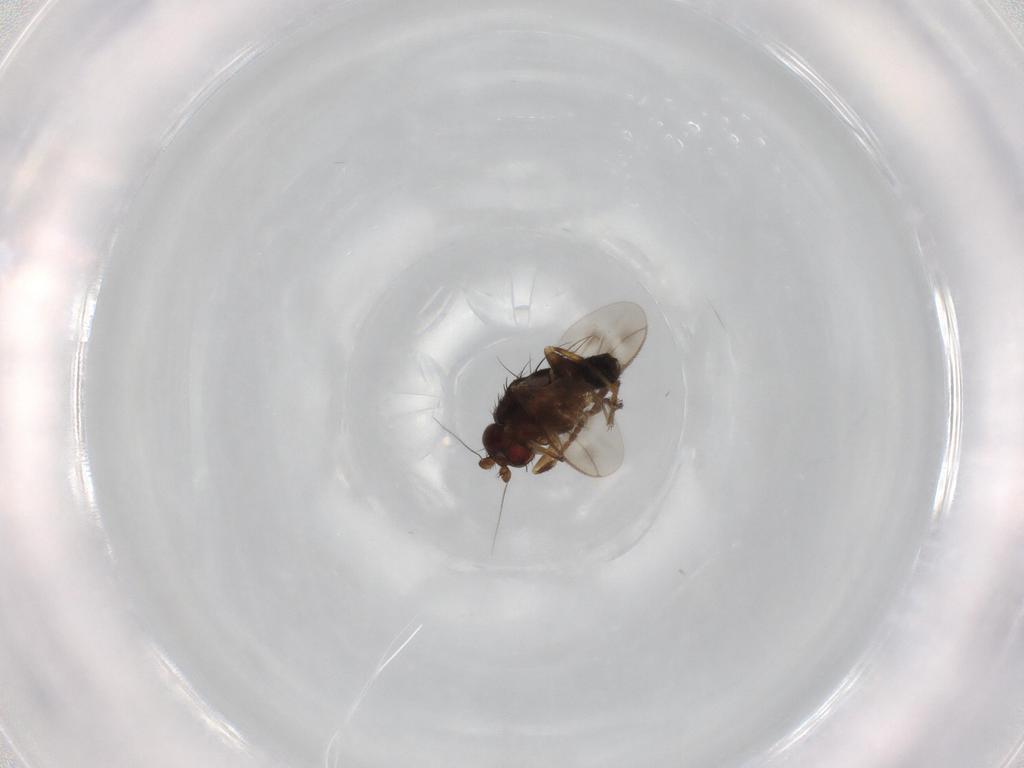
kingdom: Animalia
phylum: Arthropoda
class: Insecta
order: Diptera
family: Sphaeroceridae
